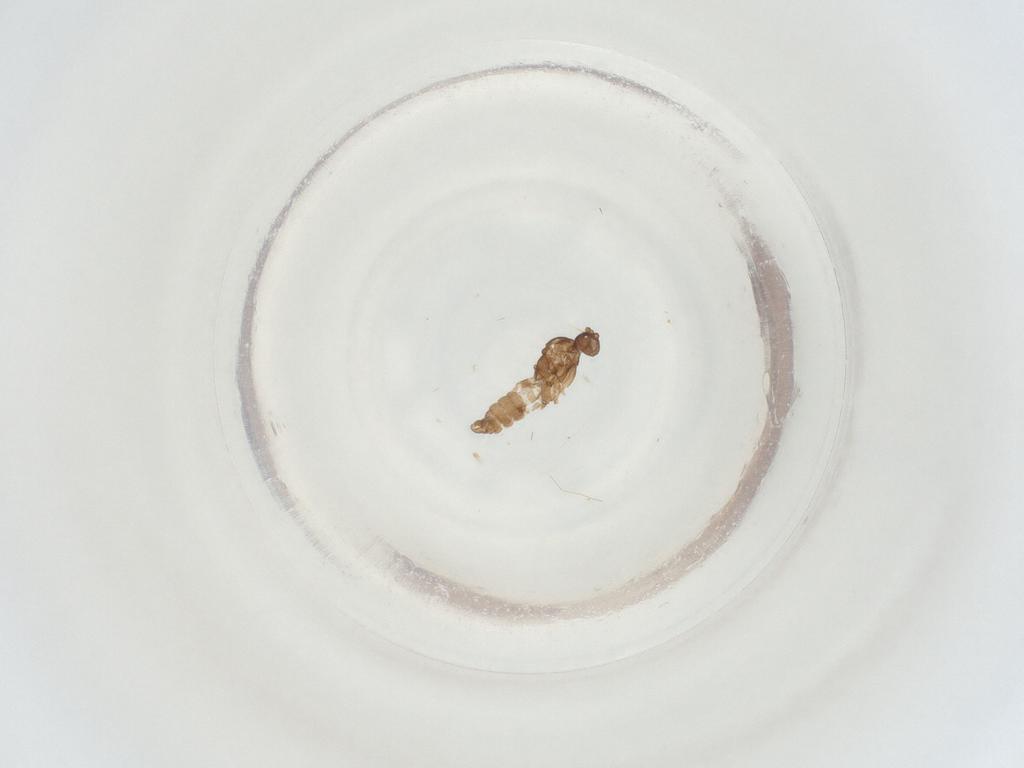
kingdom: Animalia
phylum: Arthropoda
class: Insecta
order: Diptera
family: Sciaridae
